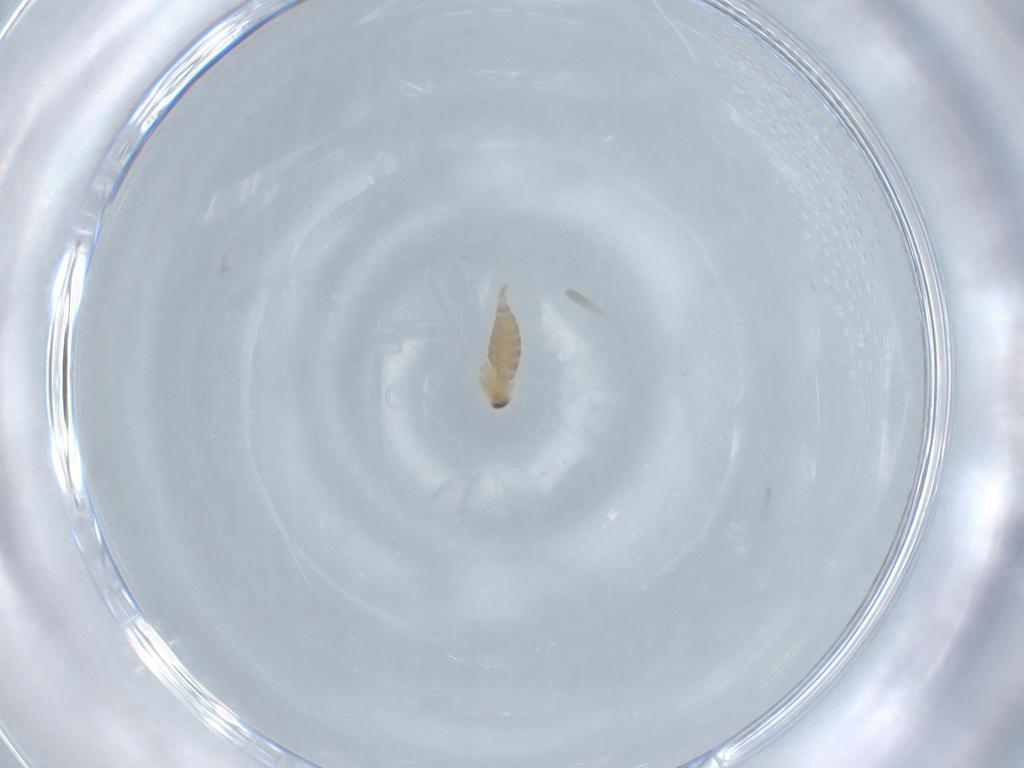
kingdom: Animalia
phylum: Arthropoda
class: Insecta
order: Diptera
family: Cecidomyiidae
